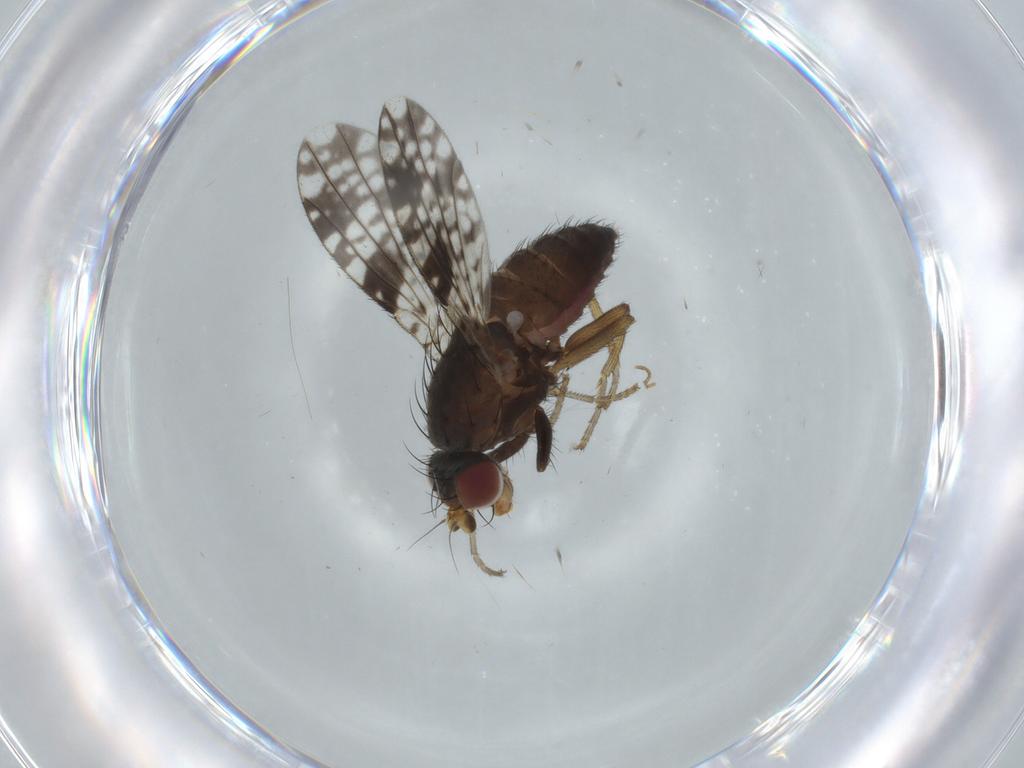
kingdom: Animalia
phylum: Arthropoda
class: Insecta
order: Diptera
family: Tephritidae
